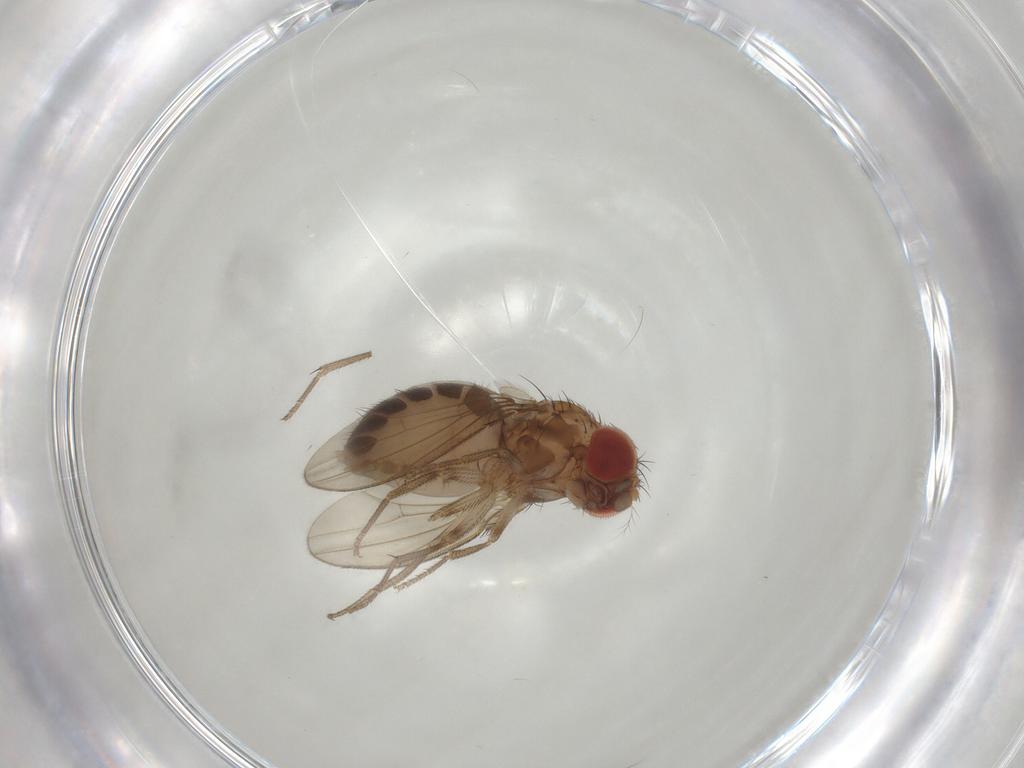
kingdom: Animalia
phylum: Arthropoda
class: Insecta
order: Diptera
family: Drosophilidae
